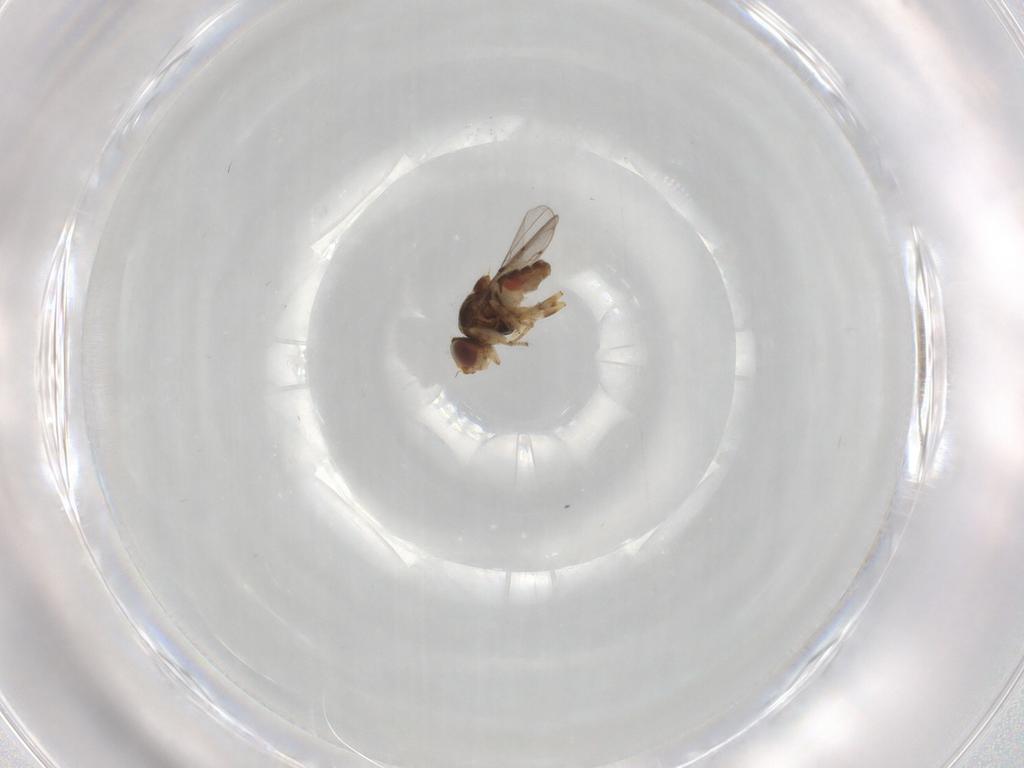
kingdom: Animalia
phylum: Arthropoda
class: Insecta
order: Diptera
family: Chloropidae
